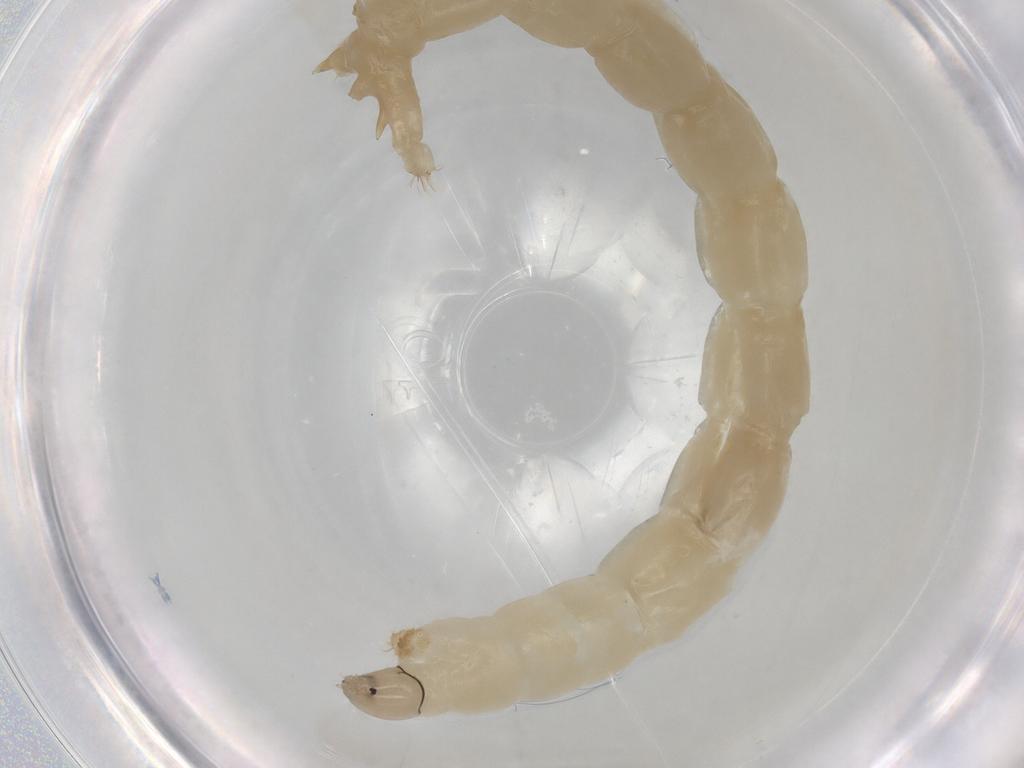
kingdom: Animalia
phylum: Arthropoda
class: Insecta
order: Diptera
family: Chironomidae
